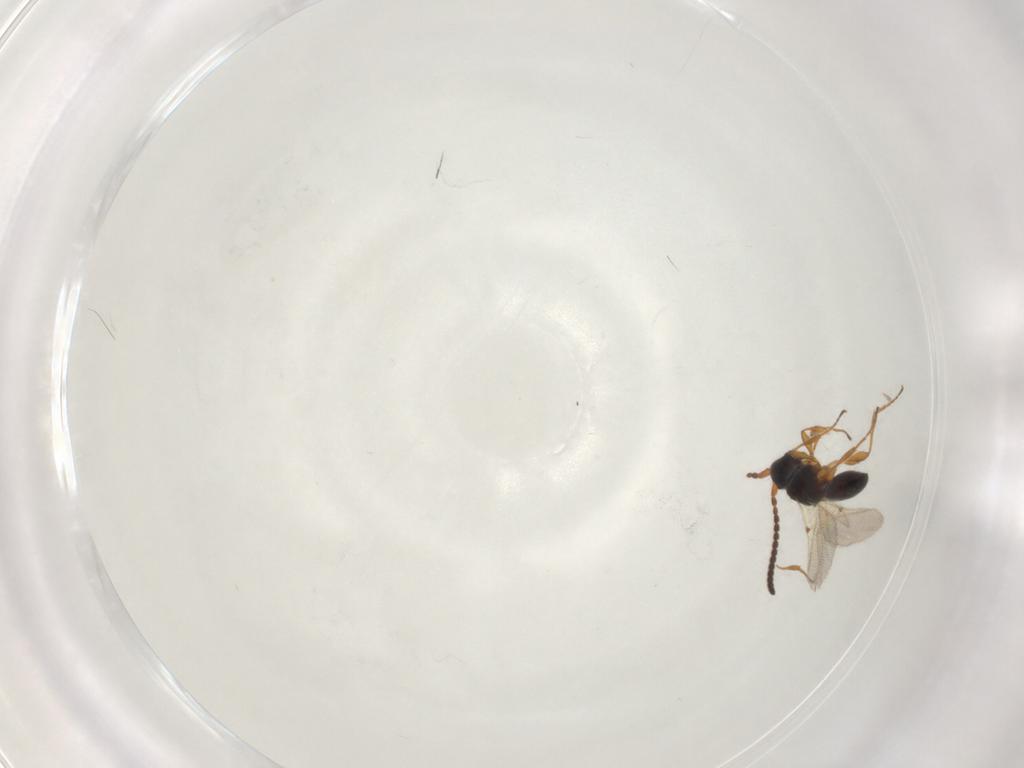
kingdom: Animalia
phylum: Arthropoda
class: Insecta
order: Hymenoptera
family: Diapriidae
